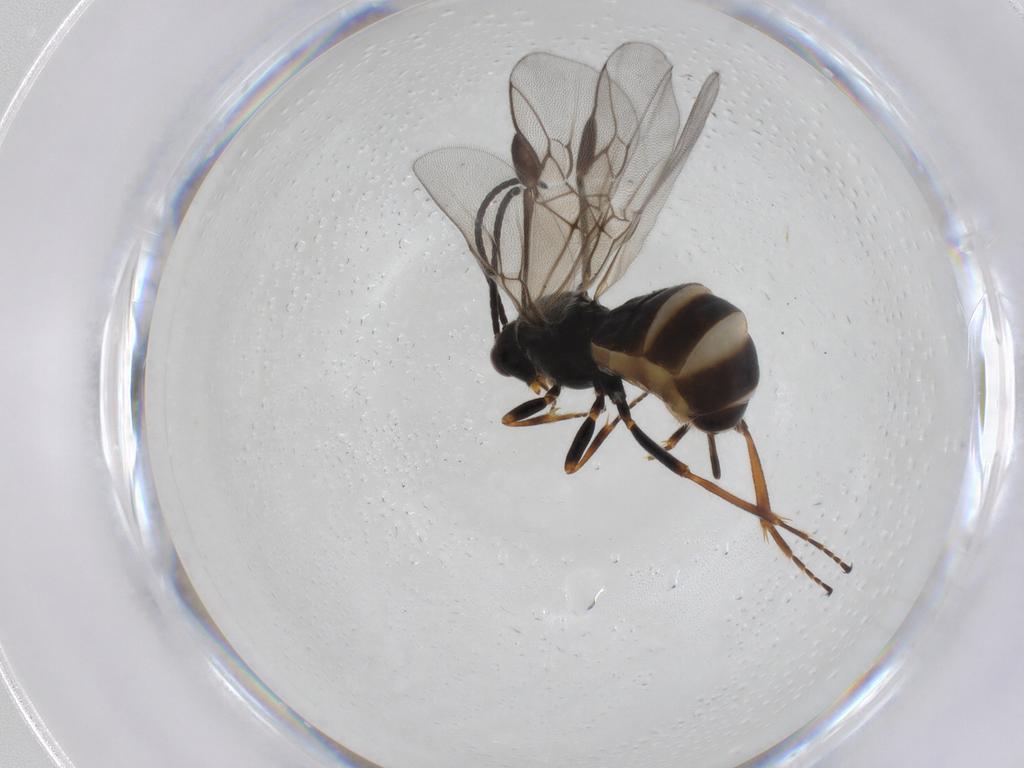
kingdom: Animalia
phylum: Arthropoda
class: Insecta
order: Hymenoptera
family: Braconidae
